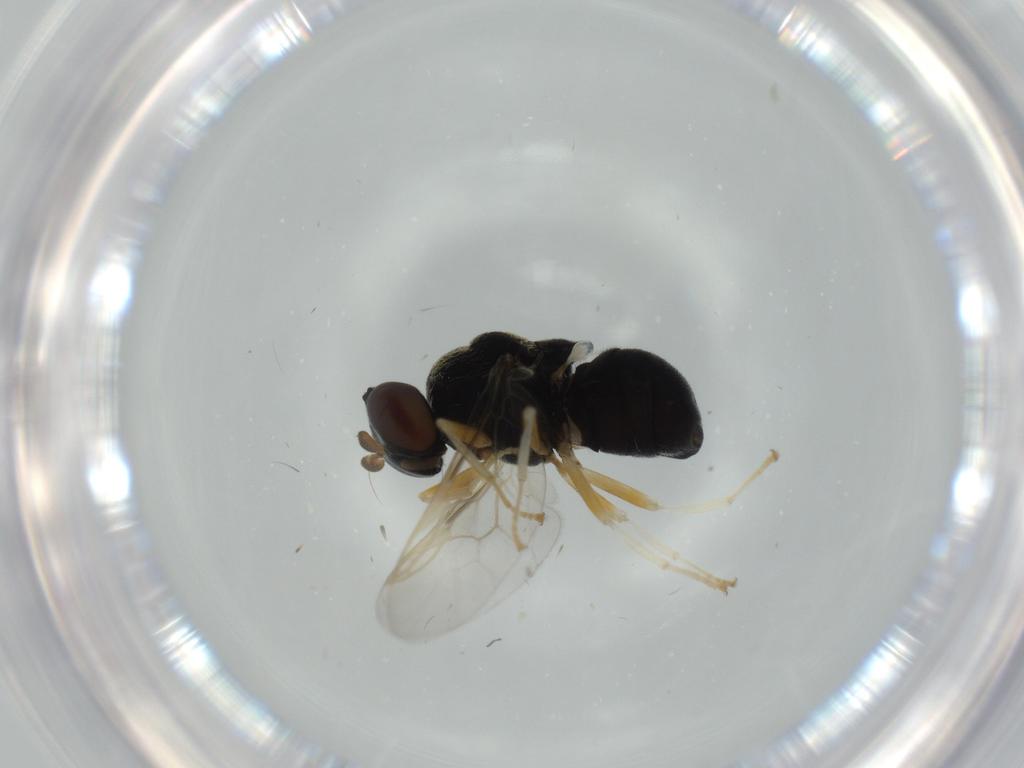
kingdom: Animalia
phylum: Arthropoda
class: Insecta
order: Diptera
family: Stratiomyidae
